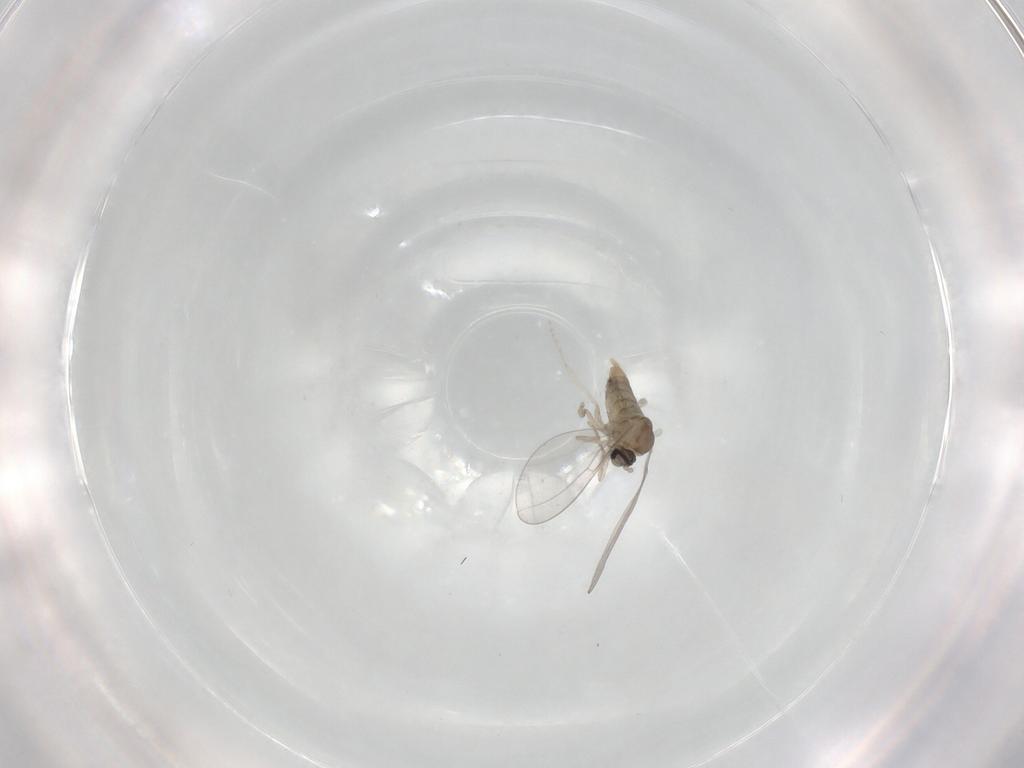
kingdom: Animalia
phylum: Arthropoda
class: Insecta
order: Diptera
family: Cecidomyiidae
